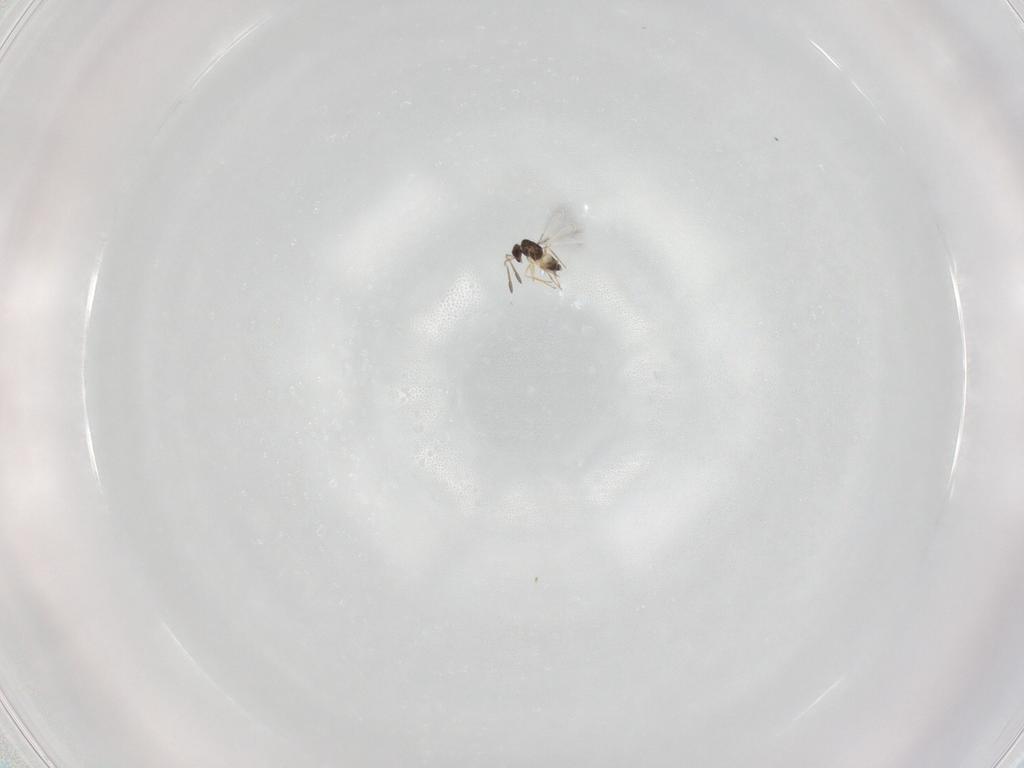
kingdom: Animalia
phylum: Arthropoda
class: Insecta
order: Hymenoptera
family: Mymaridae
